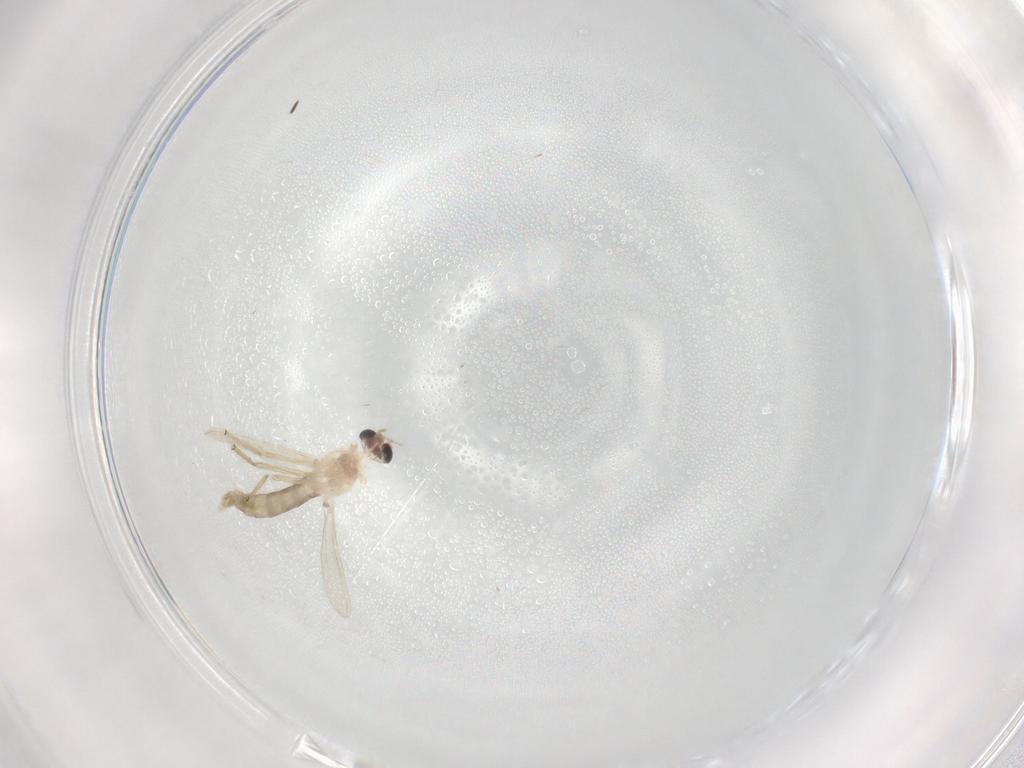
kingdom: Animalia
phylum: Arthropoda
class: Insecta
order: Diptera
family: Chironomidae
